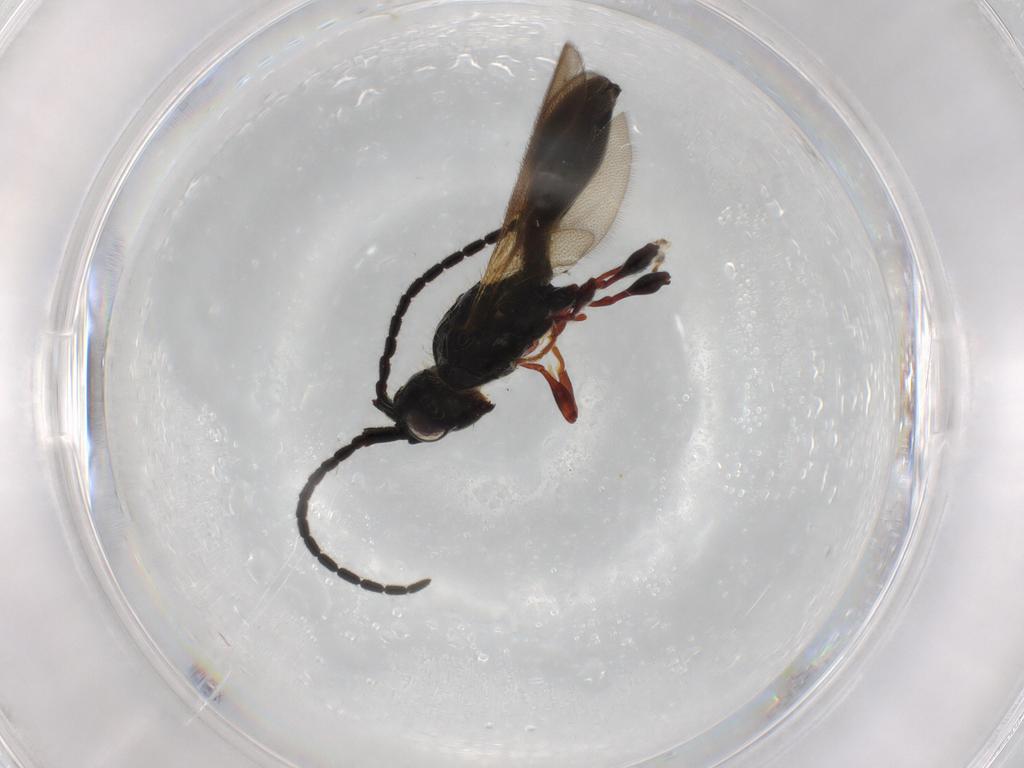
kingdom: Animalia
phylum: Arthropoda
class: Insecta
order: Hymenoptera
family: Diapriidae
